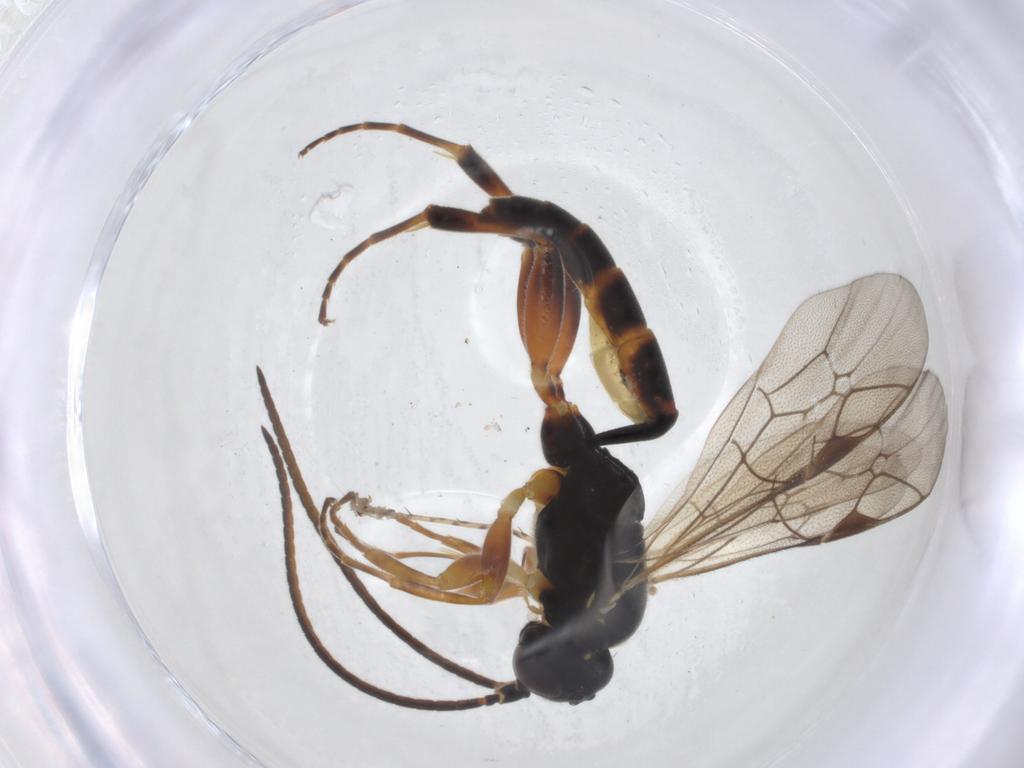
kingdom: Animalia
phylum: Arthropoda
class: Insecta
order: Hymenoptera
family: Ichneumonidae
